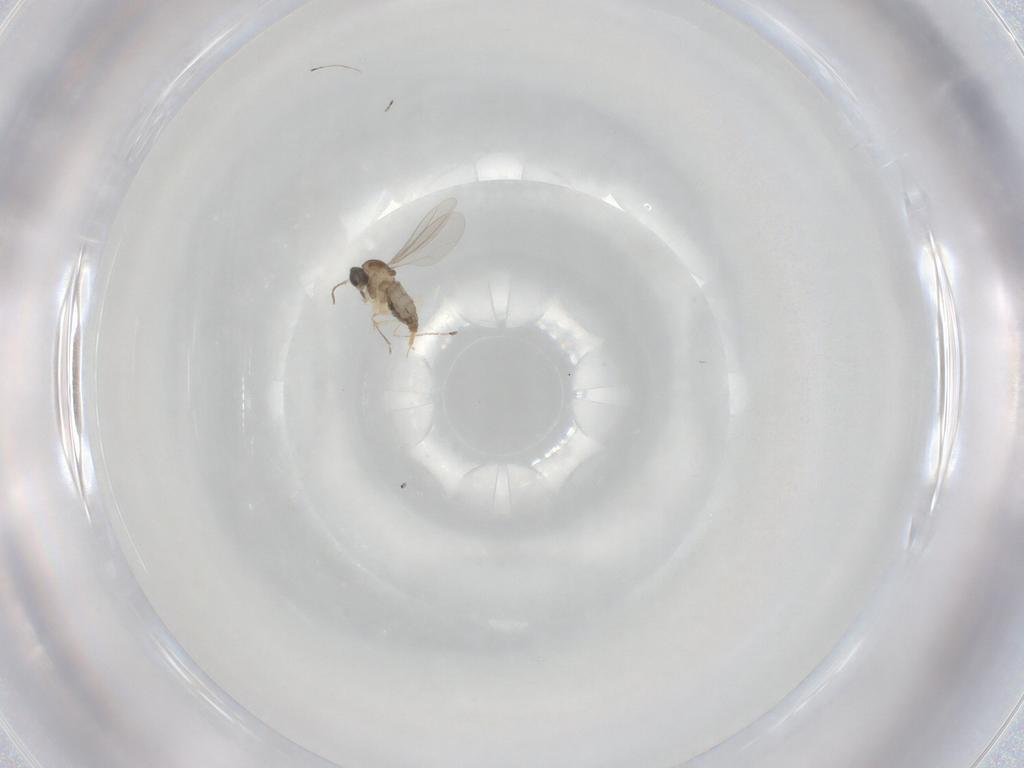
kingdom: Animalia
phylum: Arthropoda
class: Insecta
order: Diptera
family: Cecidomyiidae
